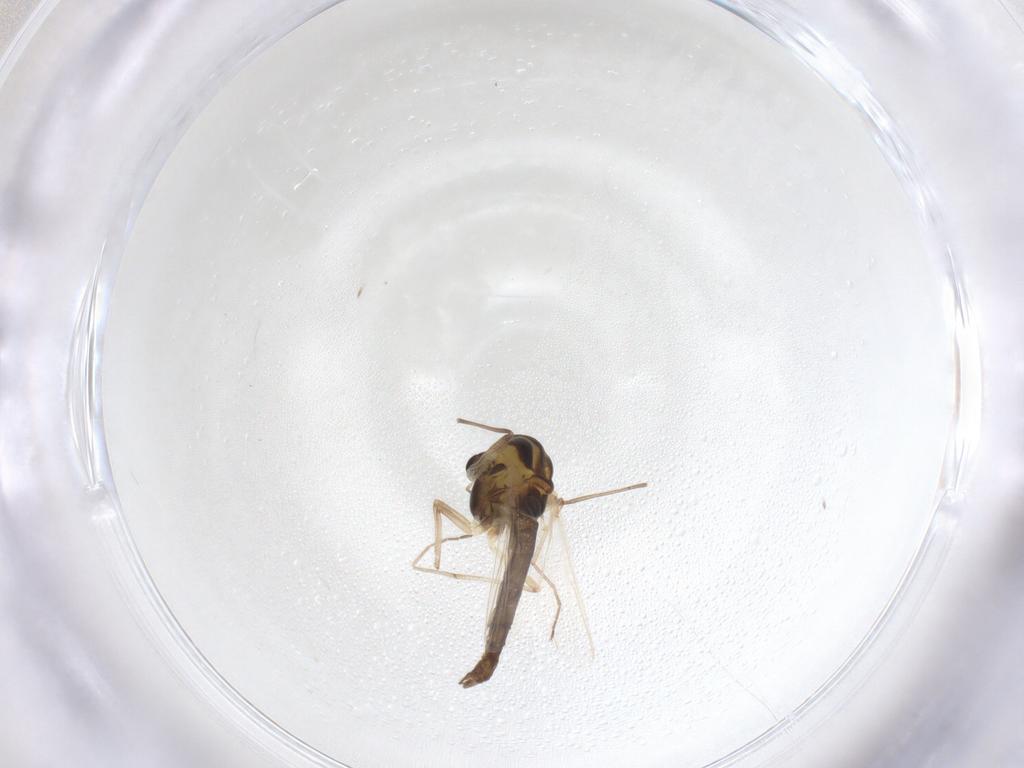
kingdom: Animalia
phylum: Arthropoda
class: Insecta
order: Diptera
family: Chironomidae
